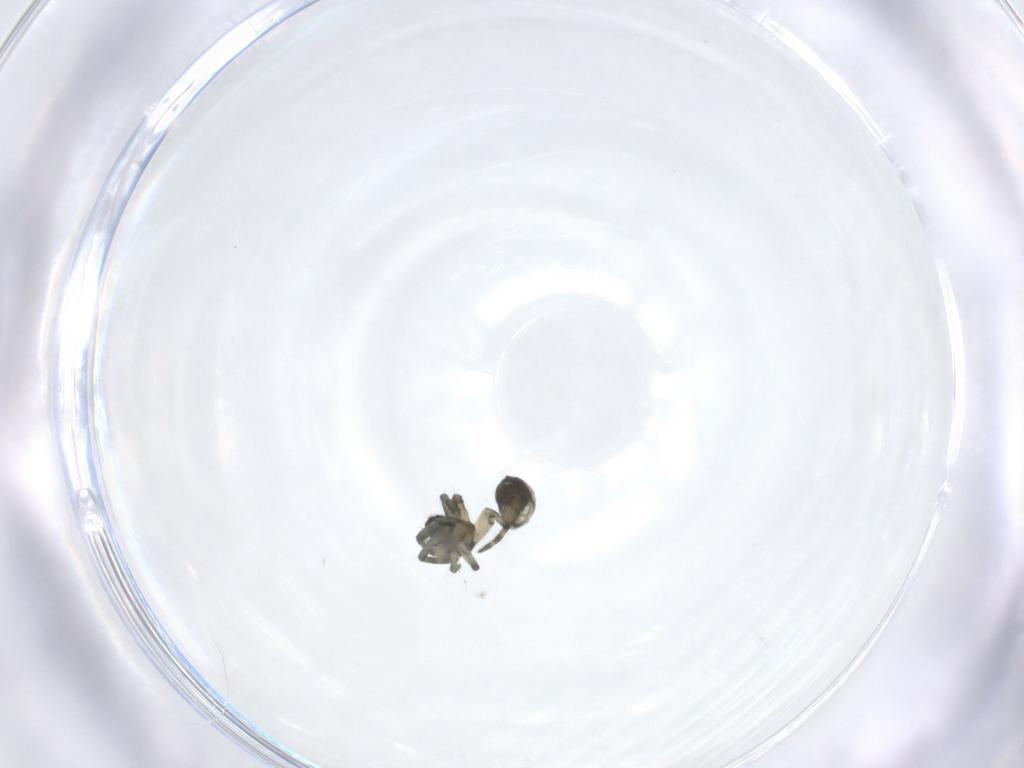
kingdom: Animalia
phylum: Arthropoda
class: Arachnida
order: Araneae
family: Tetragnathidae
